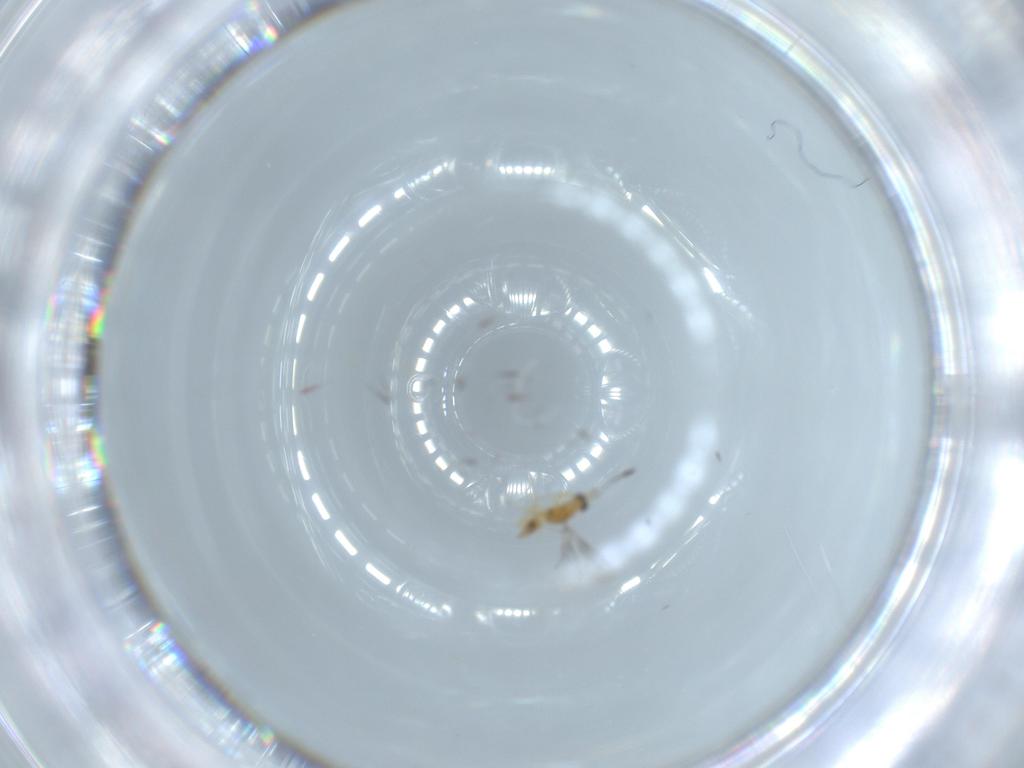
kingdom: Animalia
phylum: Arthropoda
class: Insecta
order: Hymenoptera
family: Mymaridae
